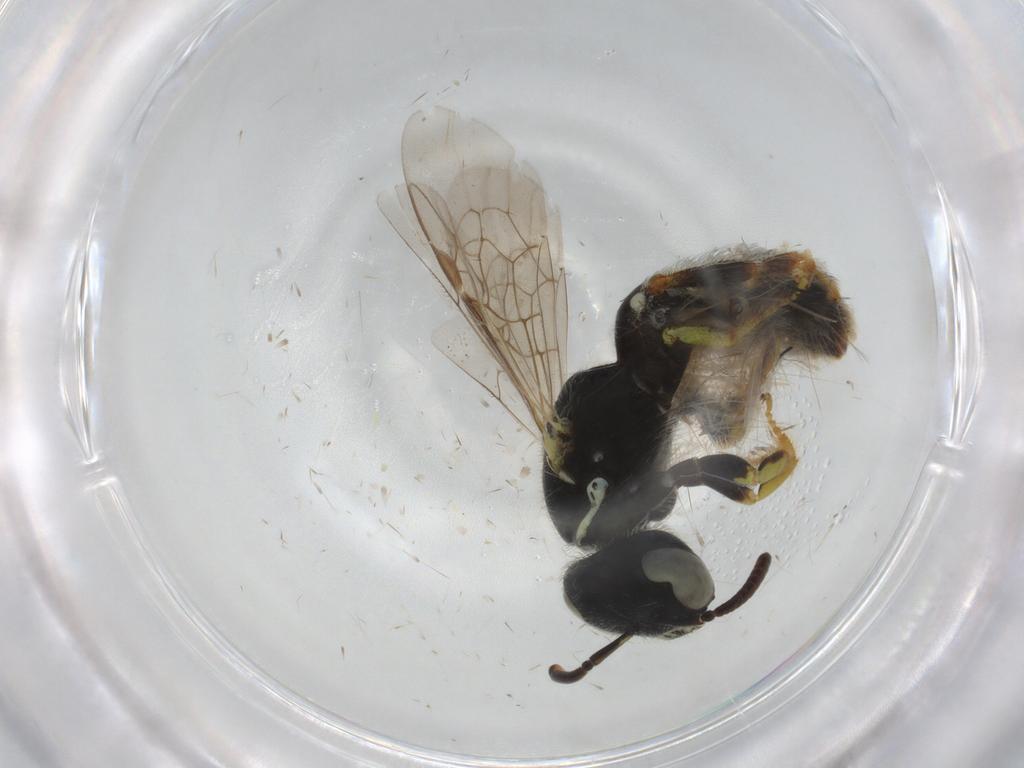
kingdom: Animalia
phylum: Arthropoda
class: Insecta
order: Hymenoptera
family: Halictidae
